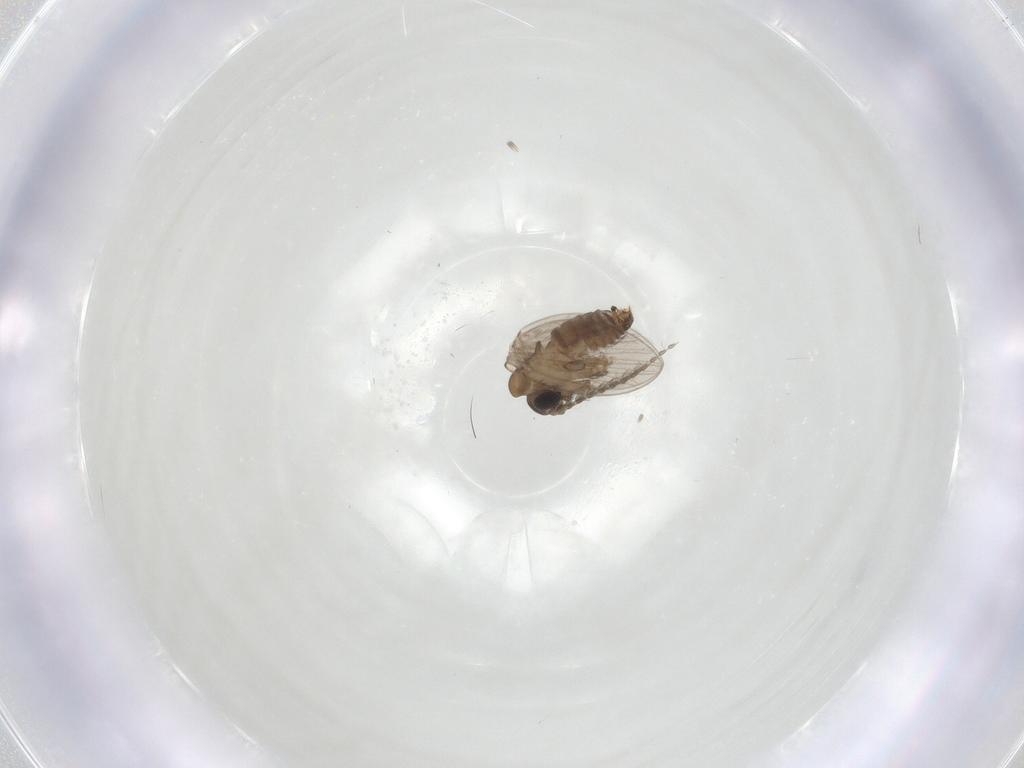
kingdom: Animalia
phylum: Arthropoda
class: Insecta
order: Diptera
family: Psychodidae
